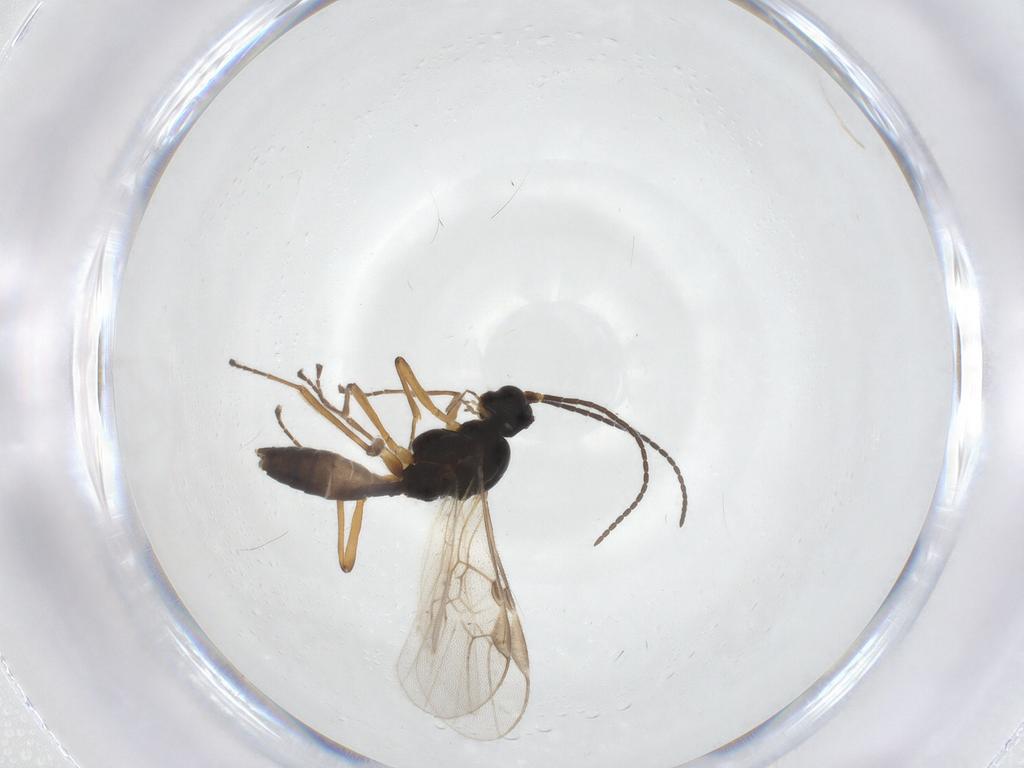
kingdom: Animalia
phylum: Arthropoda
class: Insecta
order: Hymenoptera
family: Braconidae
